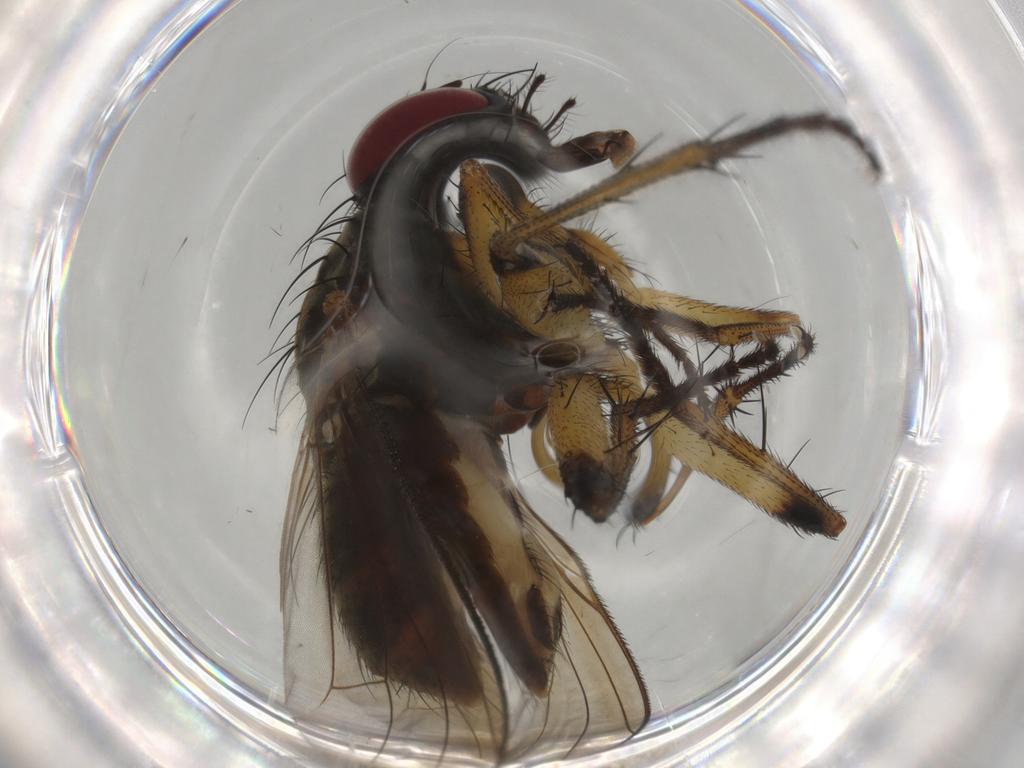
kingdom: Animalia
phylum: Arthropoda
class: Insecta
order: Diptera
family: Muscidae
